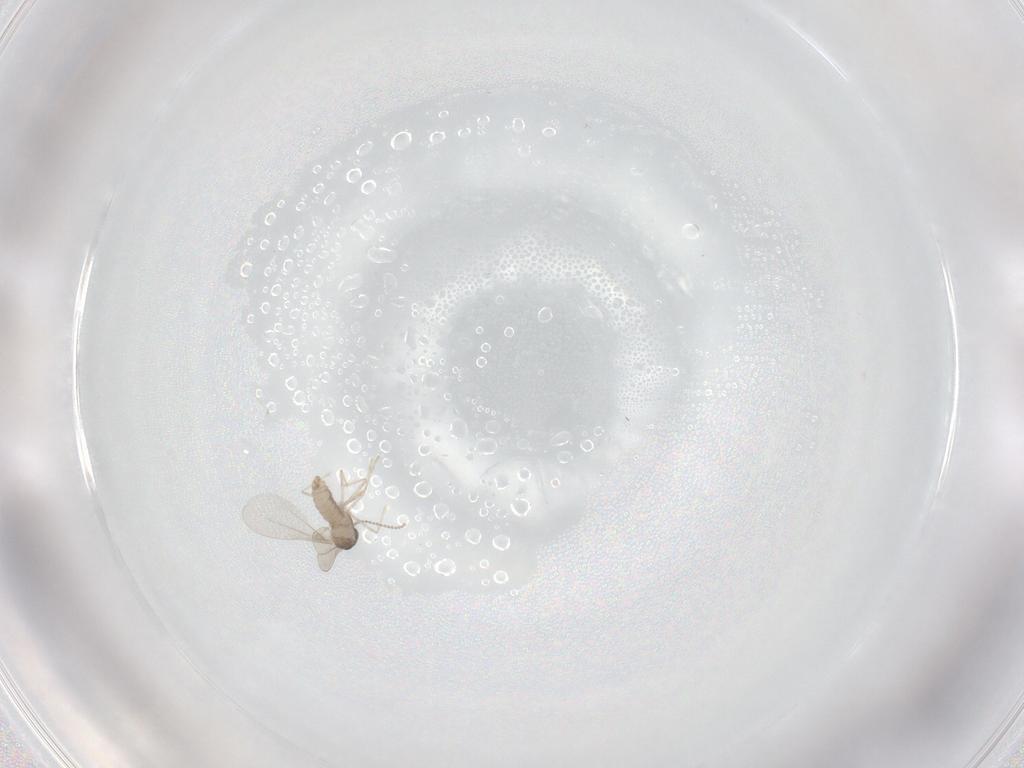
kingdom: Animalia
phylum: Arthropoda
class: Insecta
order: Diptera
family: Cecidomyiidae
